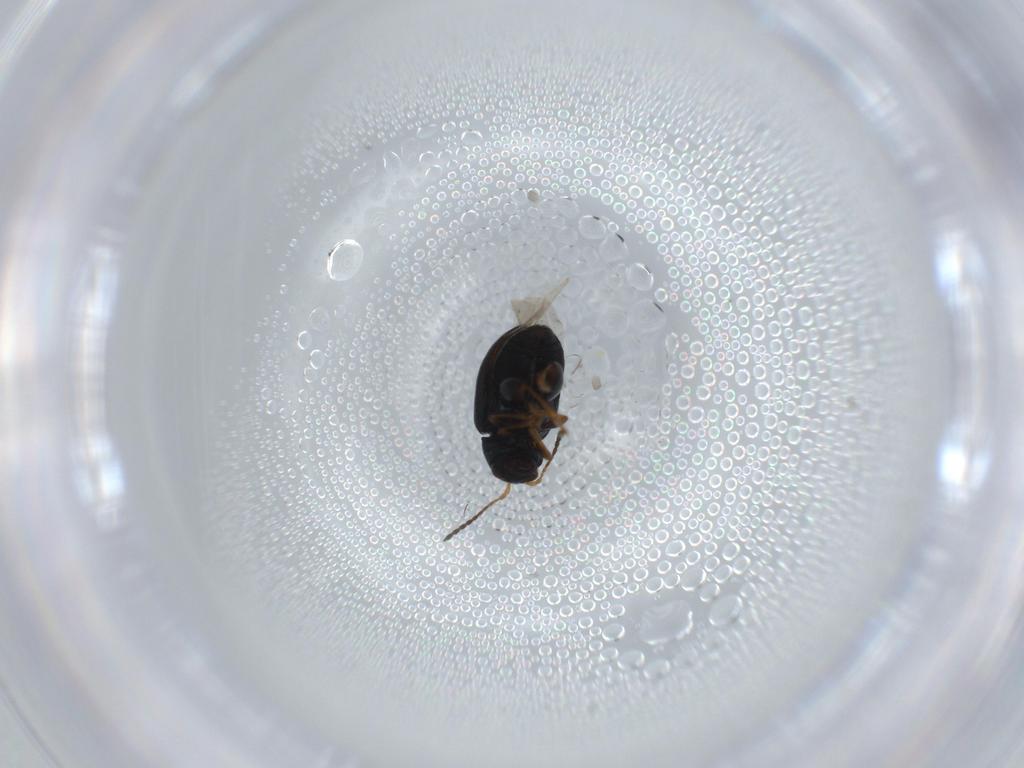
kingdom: Animalia
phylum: Arthropoda
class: Insecta
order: Coleoptera
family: Chrysomelidae
